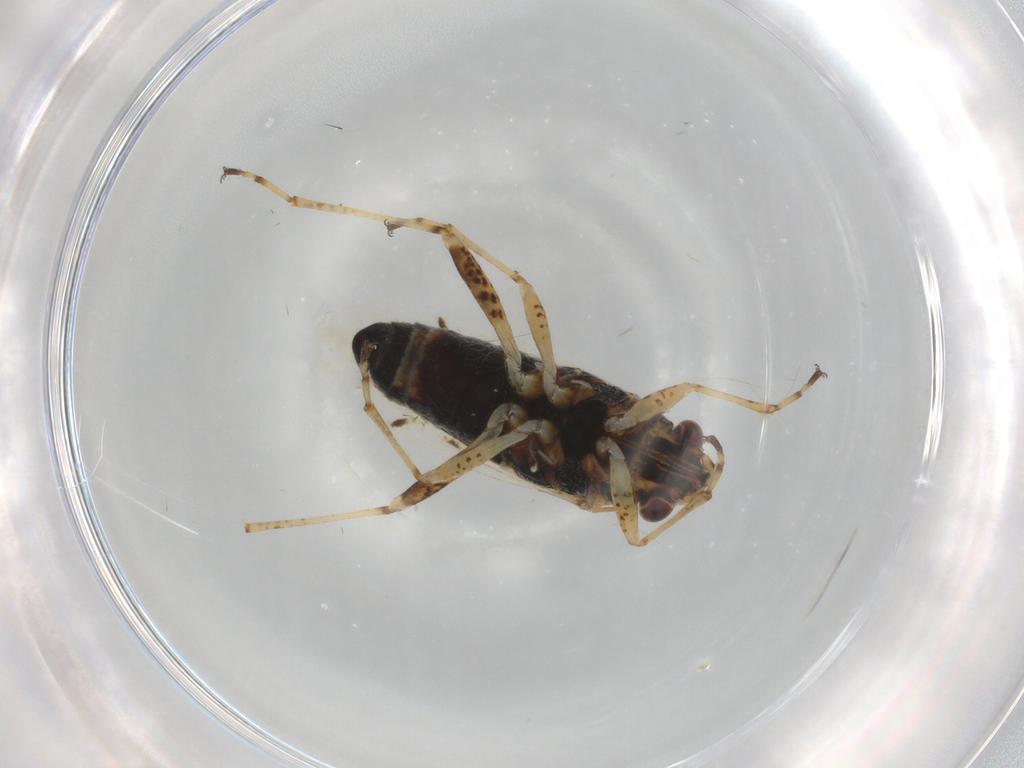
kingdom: Animalia
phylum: Arthropoda
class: Insecta
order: Hemiptera
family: Lygaeidae
